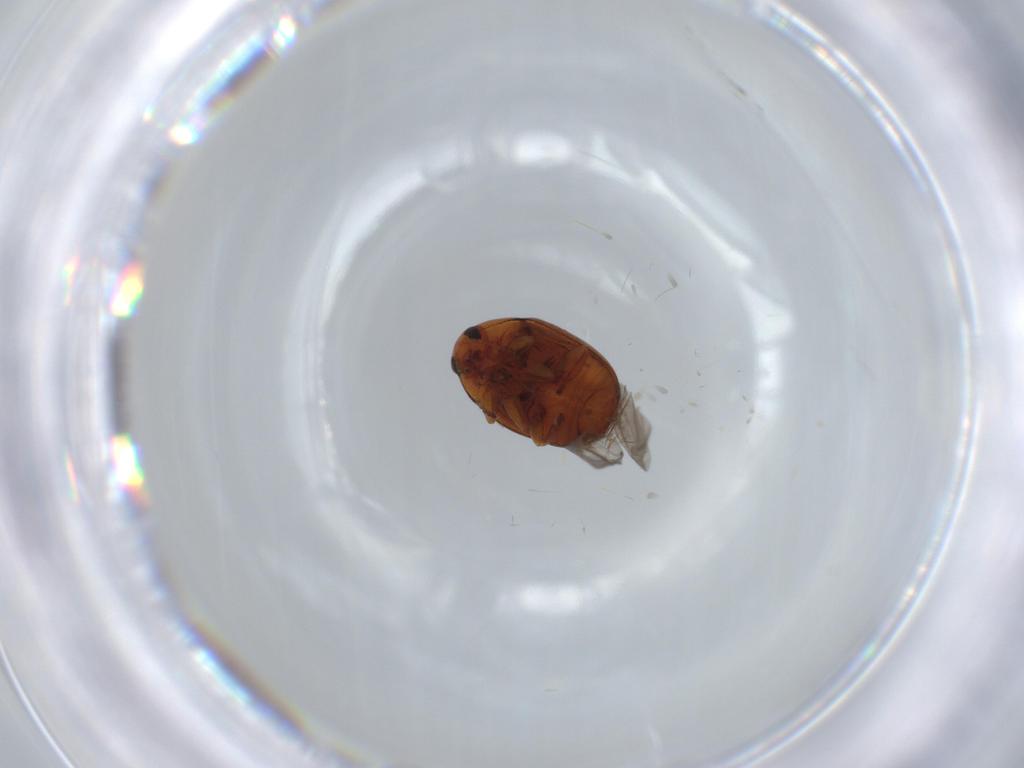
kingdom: Animalia
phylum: Arthropoda
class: Insecta
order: Coleoptera
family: Chrysomelidae
